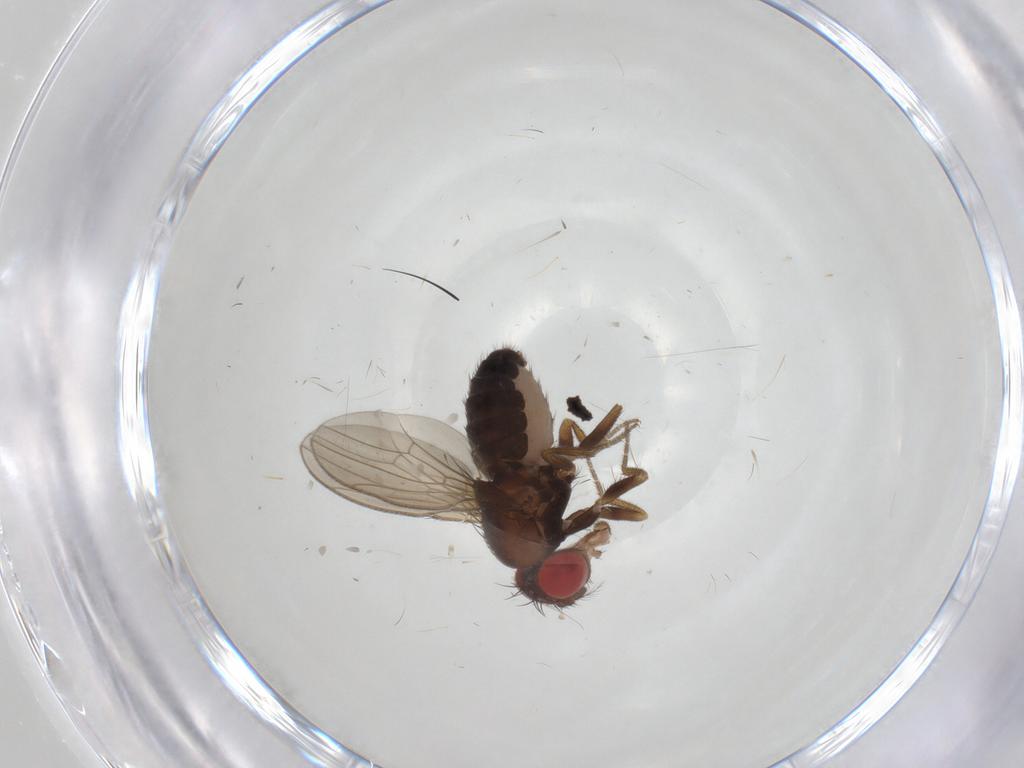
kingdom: Animalia
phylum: Arthropoda
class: Insecta
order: Diptera
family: Drosophilidae
